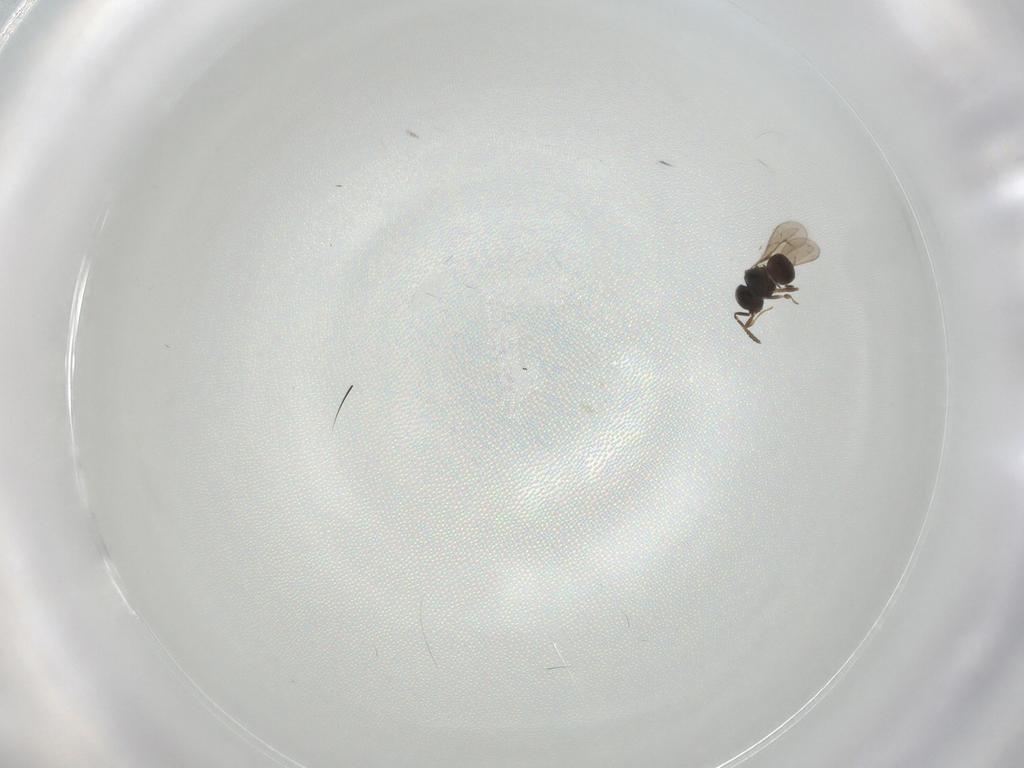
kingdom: Animalia
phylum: Arthropoda
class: Insecta
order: Hymenoptera
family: Scelionidae
